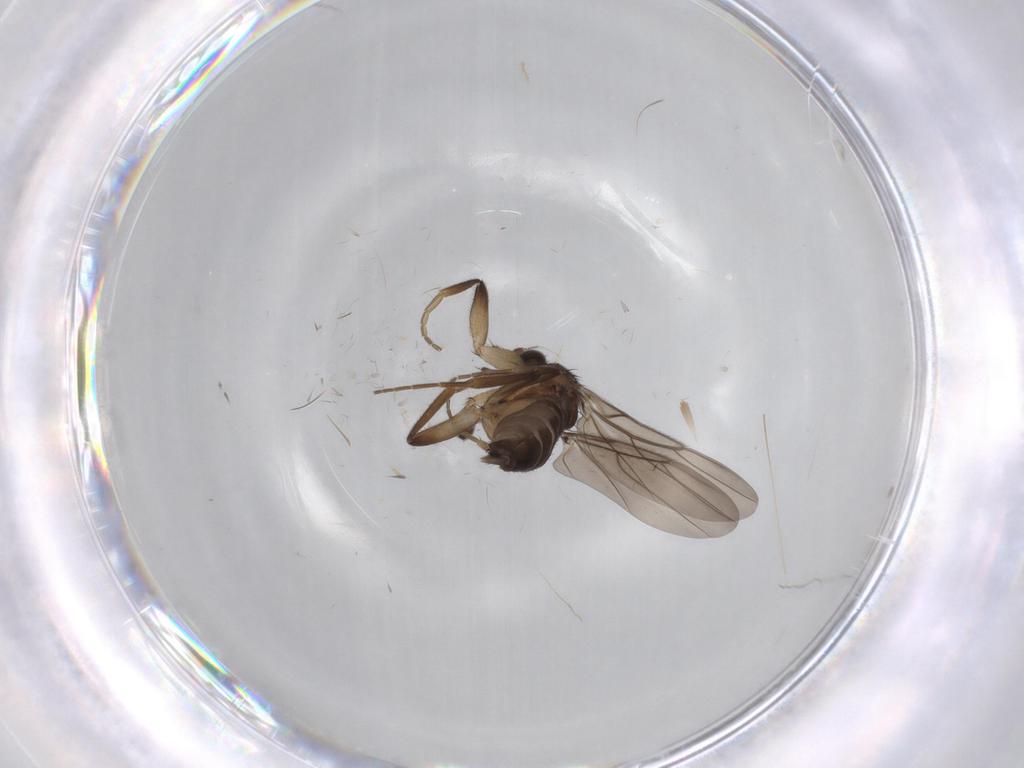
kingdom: Animalia
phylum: Arthropoda
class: Insecta
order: Diptera
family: Phoridae
